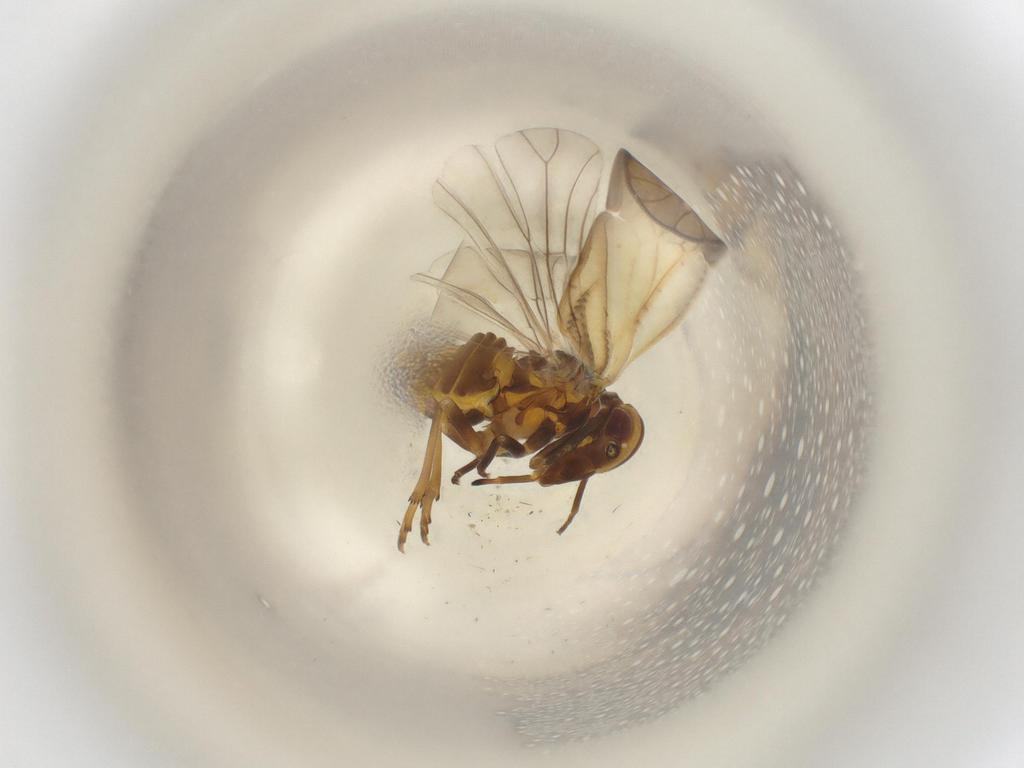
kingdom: Animalia
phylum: Arthropoda
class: Insecta
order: Hemiptera
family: Meenoplidae
